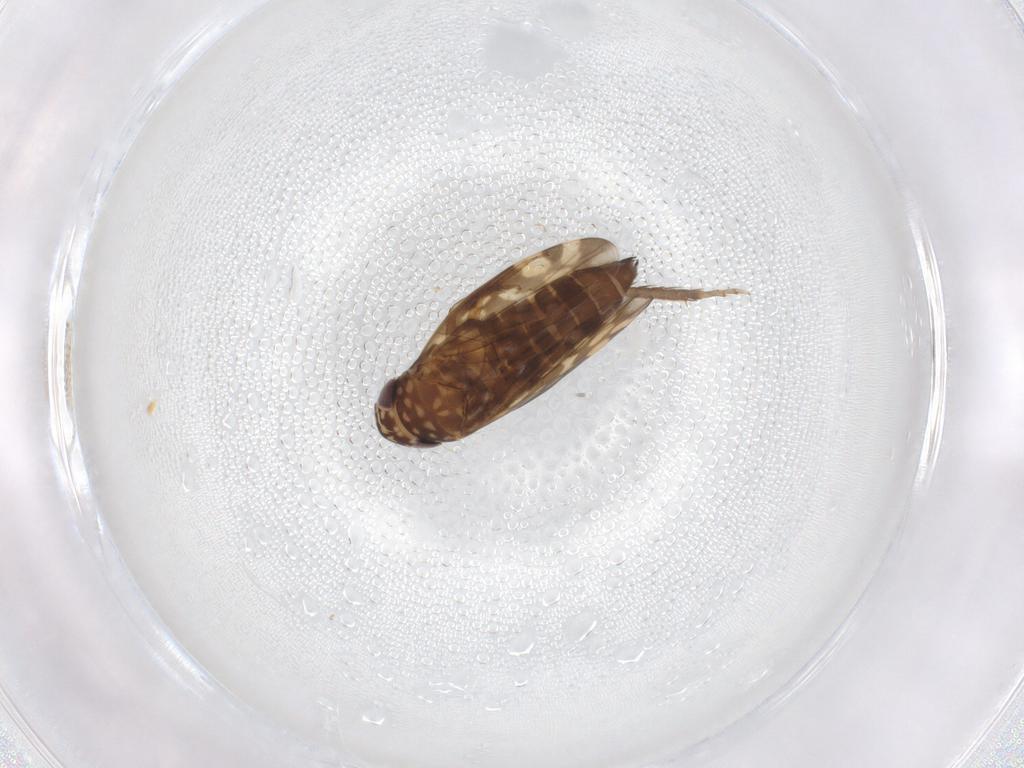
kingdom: Animalia
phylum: Arthropoda
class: Insecta
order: Hemiptera
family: Cicadellidae
